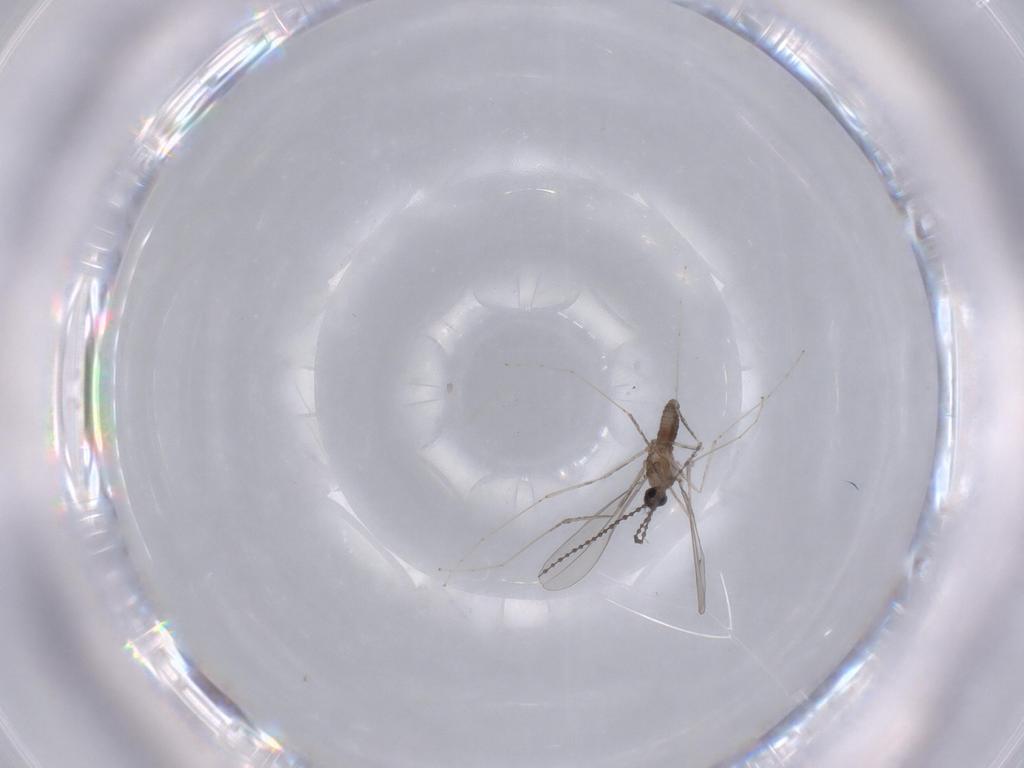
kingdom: Animalia
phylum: Arthropoda
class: Insecta
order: Diptera
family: Cecidomyiidae
